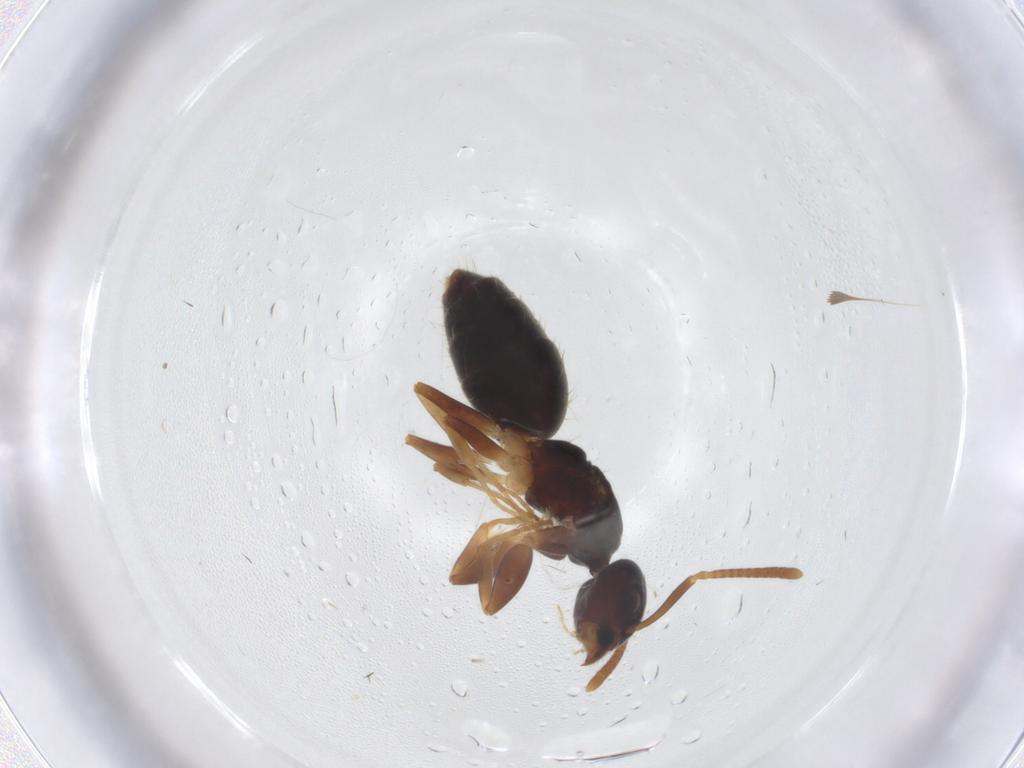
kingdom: Animalia
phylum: Arthropoda
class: Insecta
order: Hymenoptera
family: Formicidae
